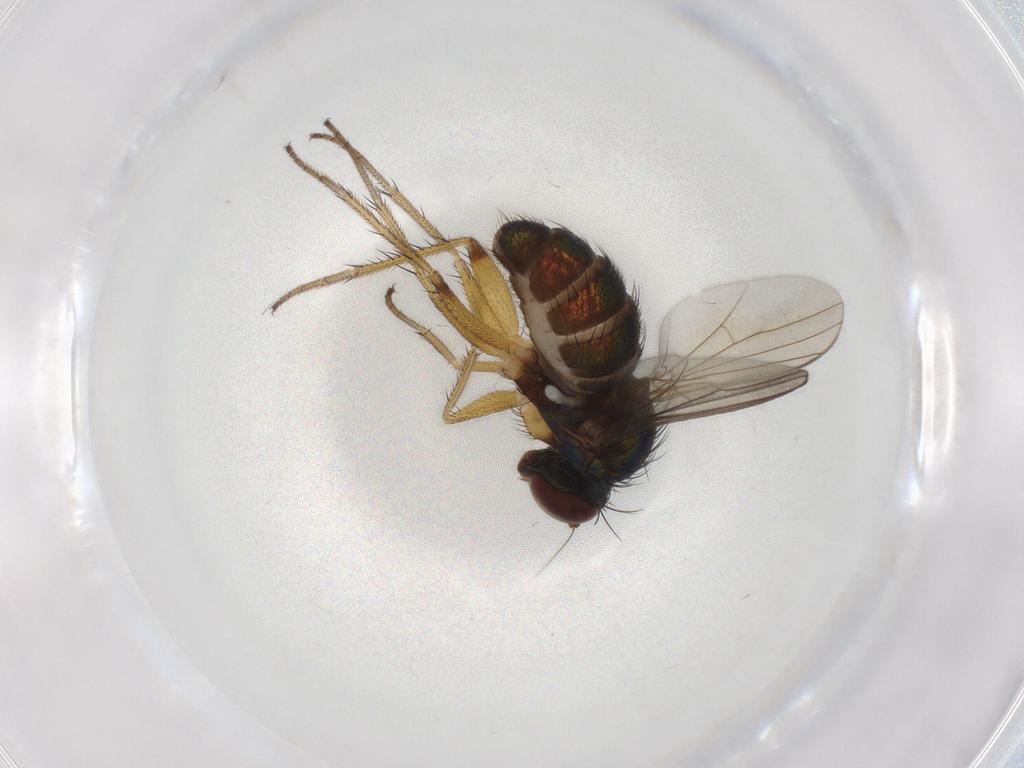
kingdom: Animalia
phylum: Arthropoda
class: Insecta
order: Diptera
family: Dolichopodidae
